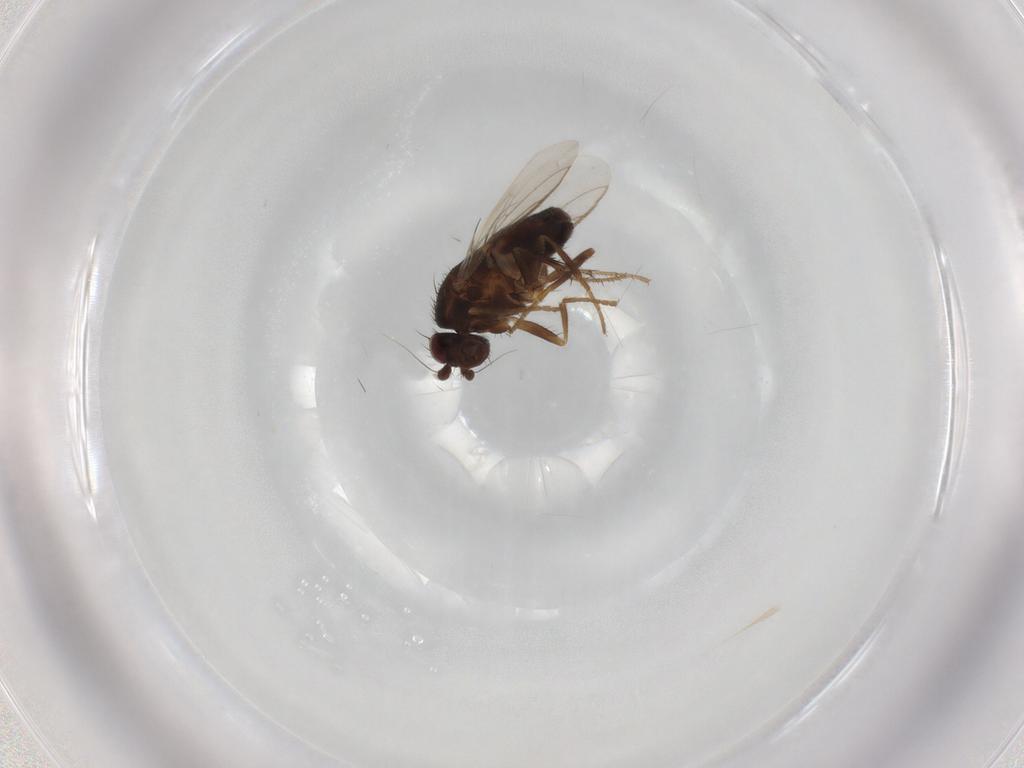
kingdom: Animalia
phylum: Arthropoda
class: Insecta
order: Diptera
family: Sphaeroceridae
